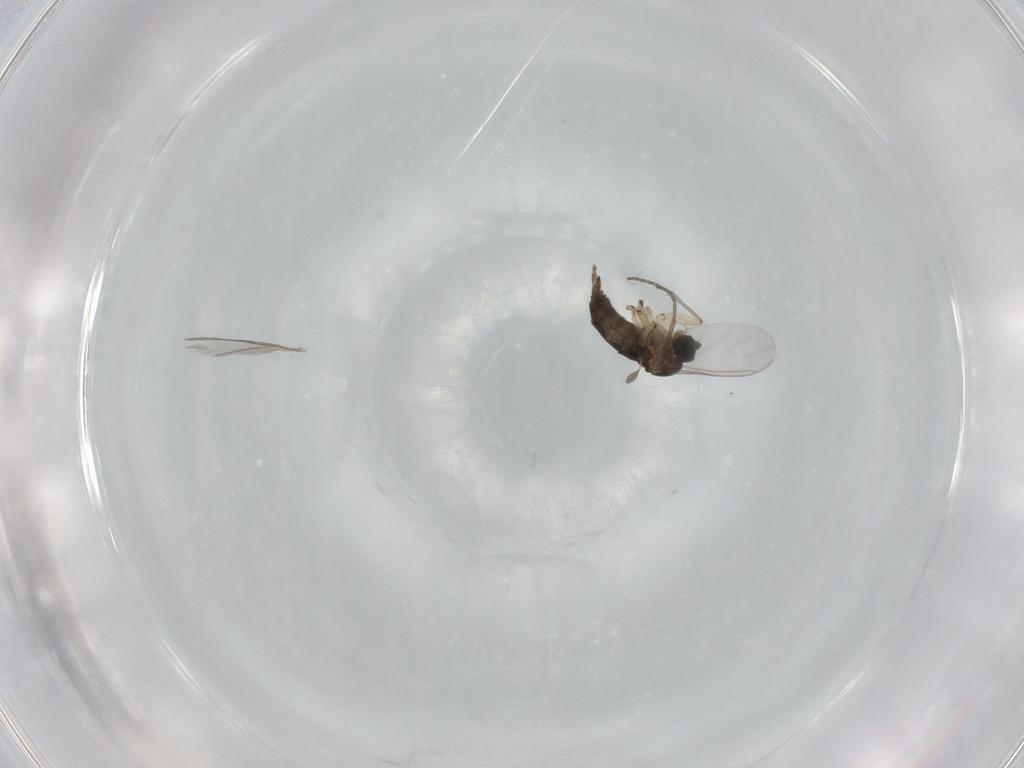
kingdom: Animalia
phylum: Arthropoda
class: Insecta
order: Diptera
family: Sciaridae
